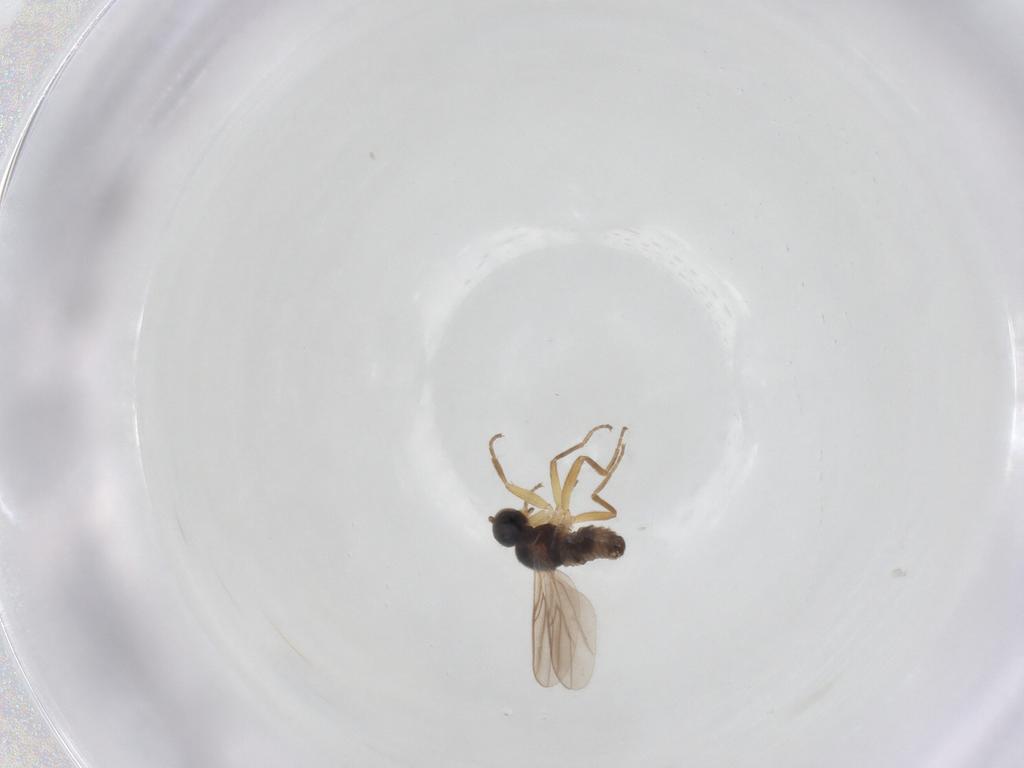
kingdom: Animalia
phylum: Arthropoda
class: Insecta
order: Diptera
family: Hybotidae
